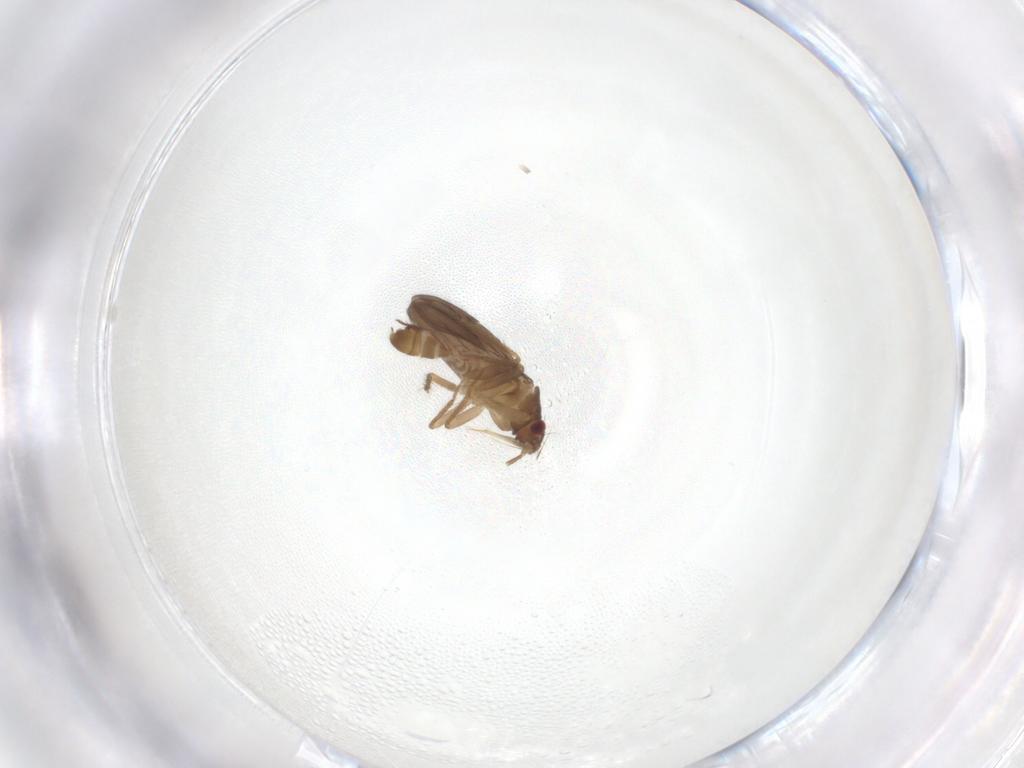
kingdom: Animalia
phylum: Arthropoda
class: Insecta
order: Hemiptera
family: Ceratocombidae
